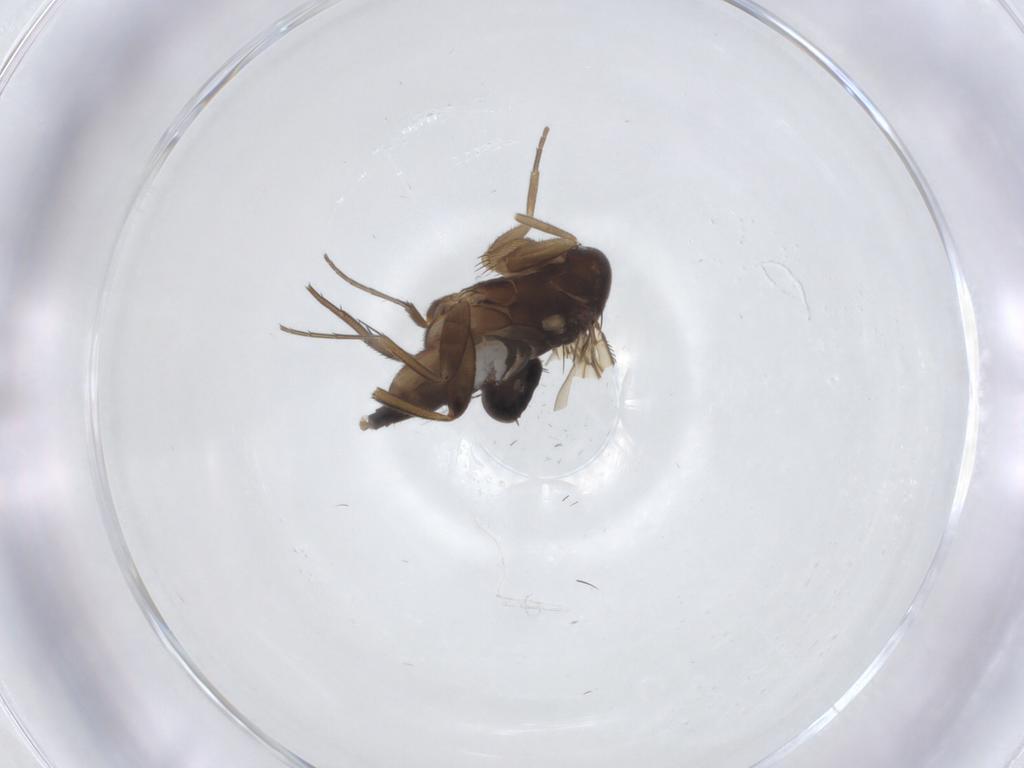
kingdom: Animalia
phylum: Arthropoda
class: Insecta
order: Diptera
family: Phoridae
